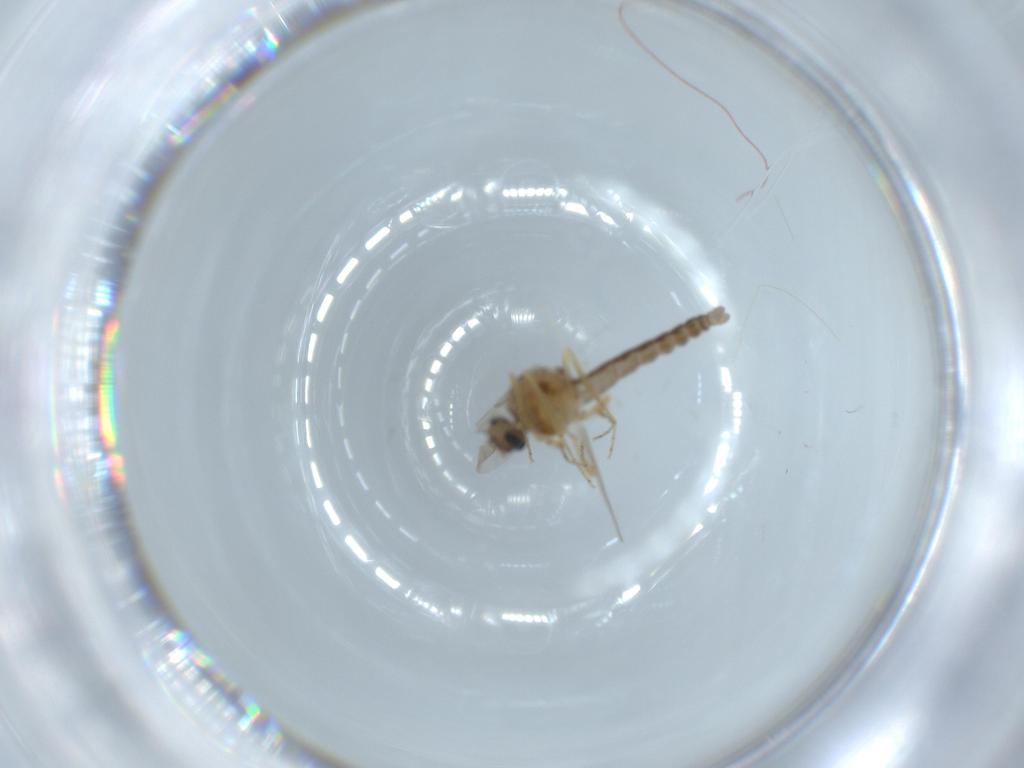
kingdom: Animalia
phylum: Arthropoda
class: Insecta
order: Diptera
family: Ceratopogonidae
